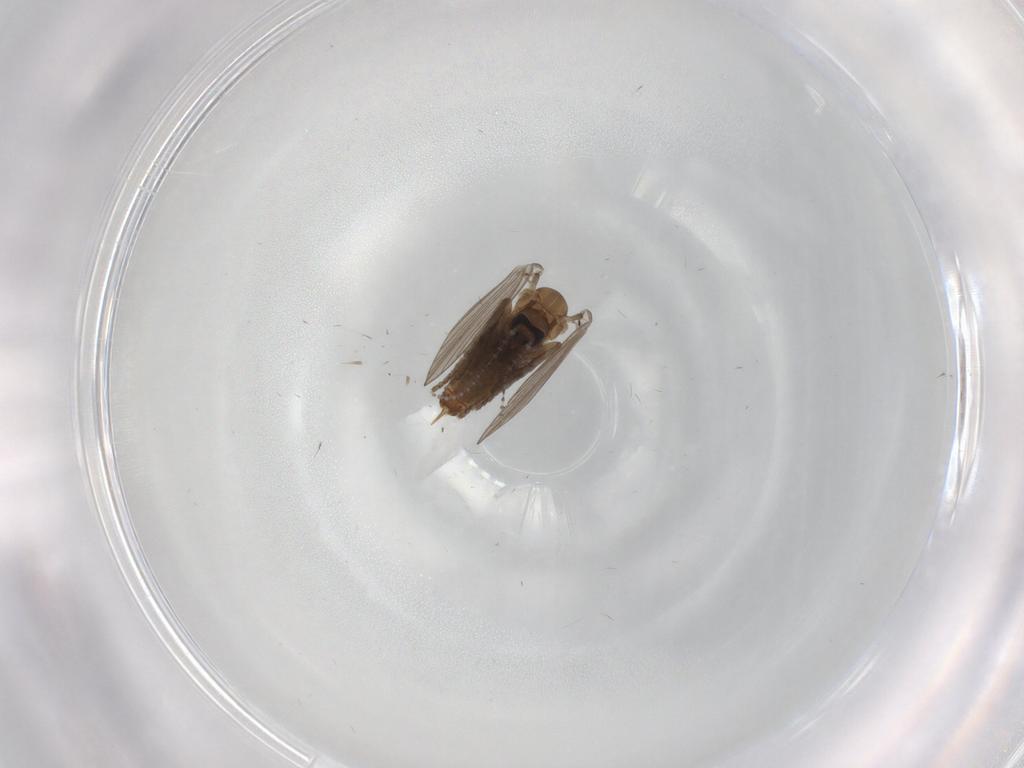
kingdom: Animalia
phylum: Arthropoda
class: Insecta
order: Diptera
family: Psychodidae
